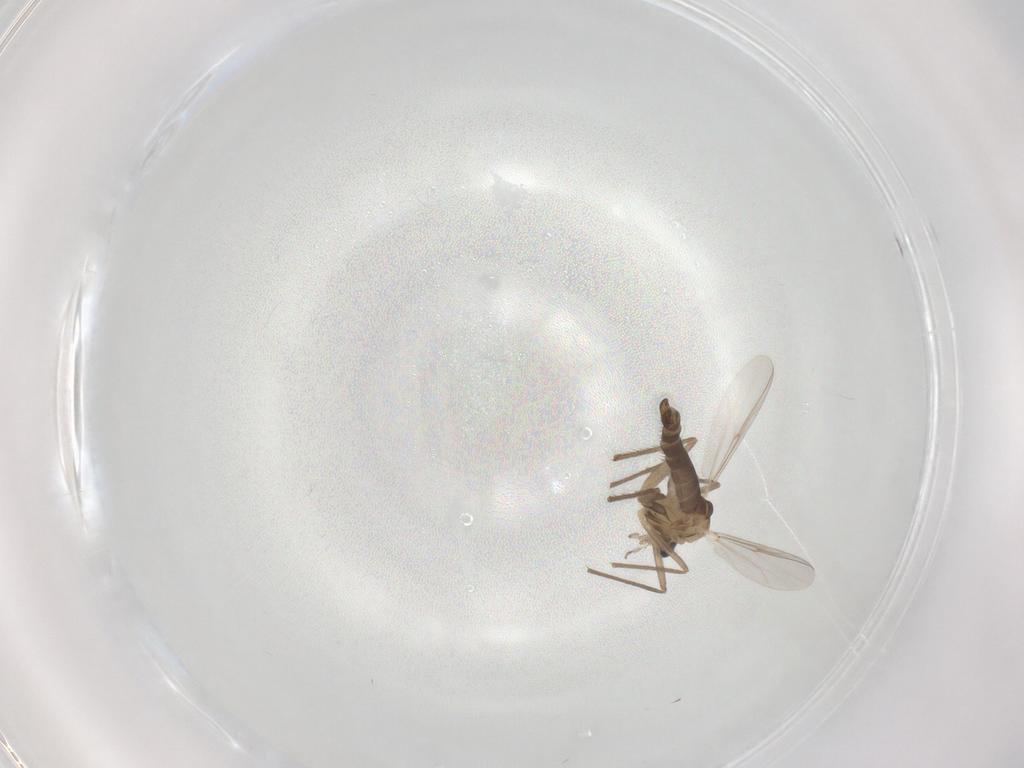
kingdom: Animalia
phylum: Arthropoda
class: Insecta
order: Diptera
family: Chironomidae
